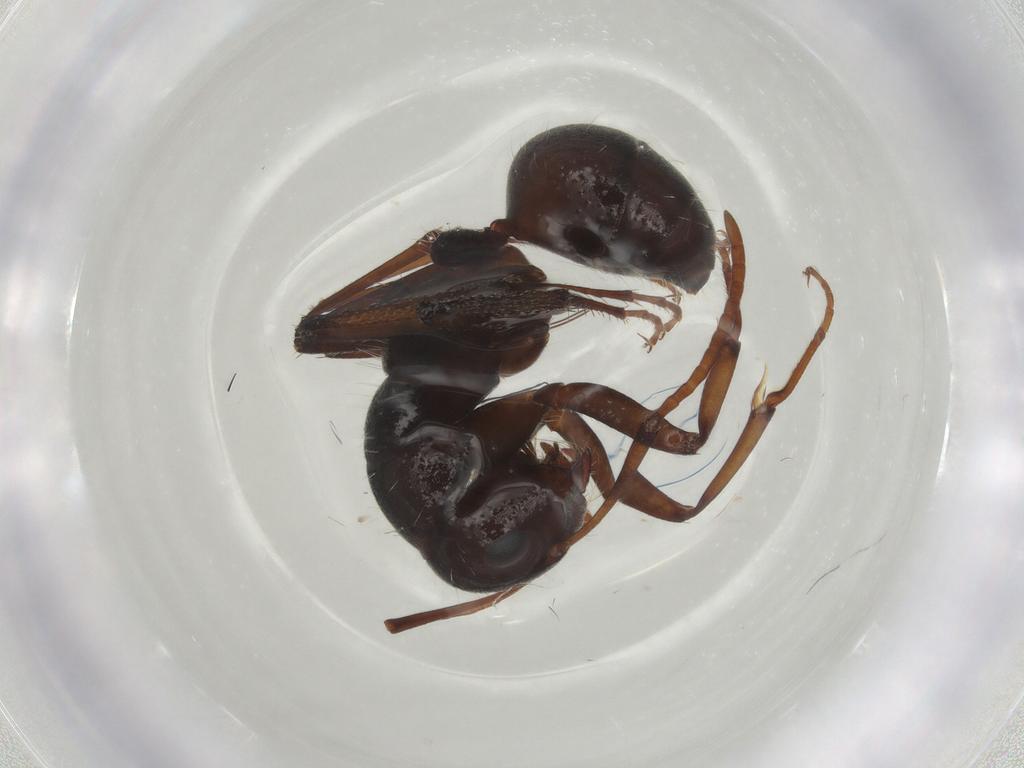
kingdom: Animalia
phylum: Arthropoda
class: Insecta
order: Hymenoptera
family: Formicidae
